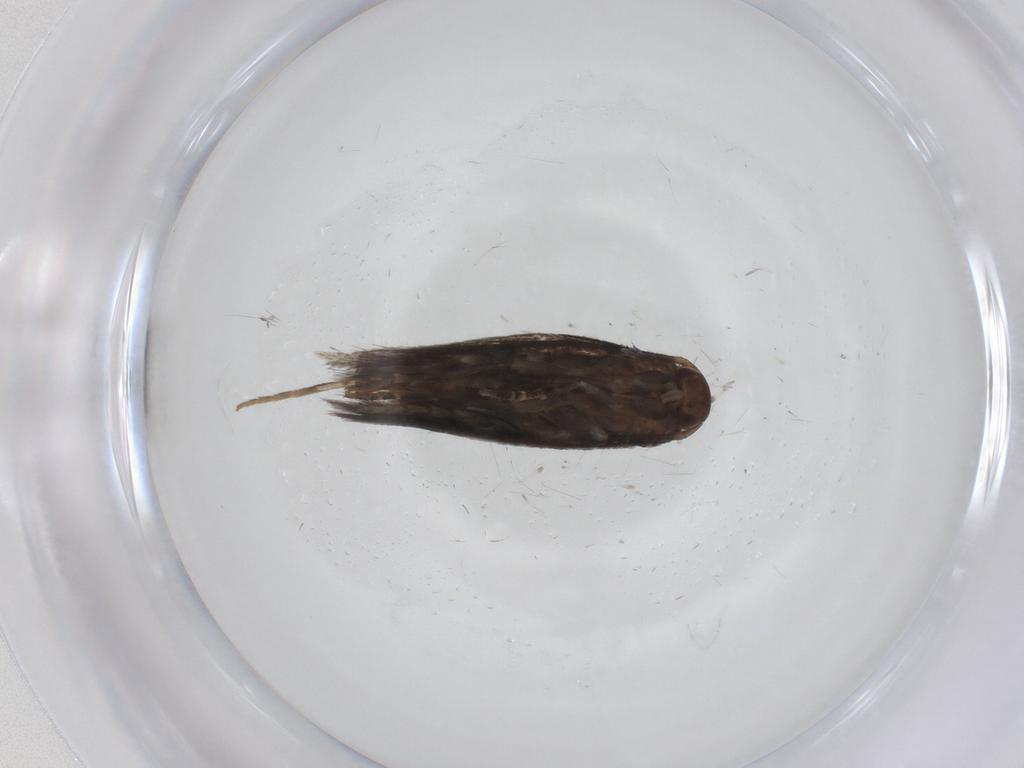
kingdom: Animalia
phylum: Arthropoda
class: Insecta
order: Lepidoptera
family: Elachistidae
